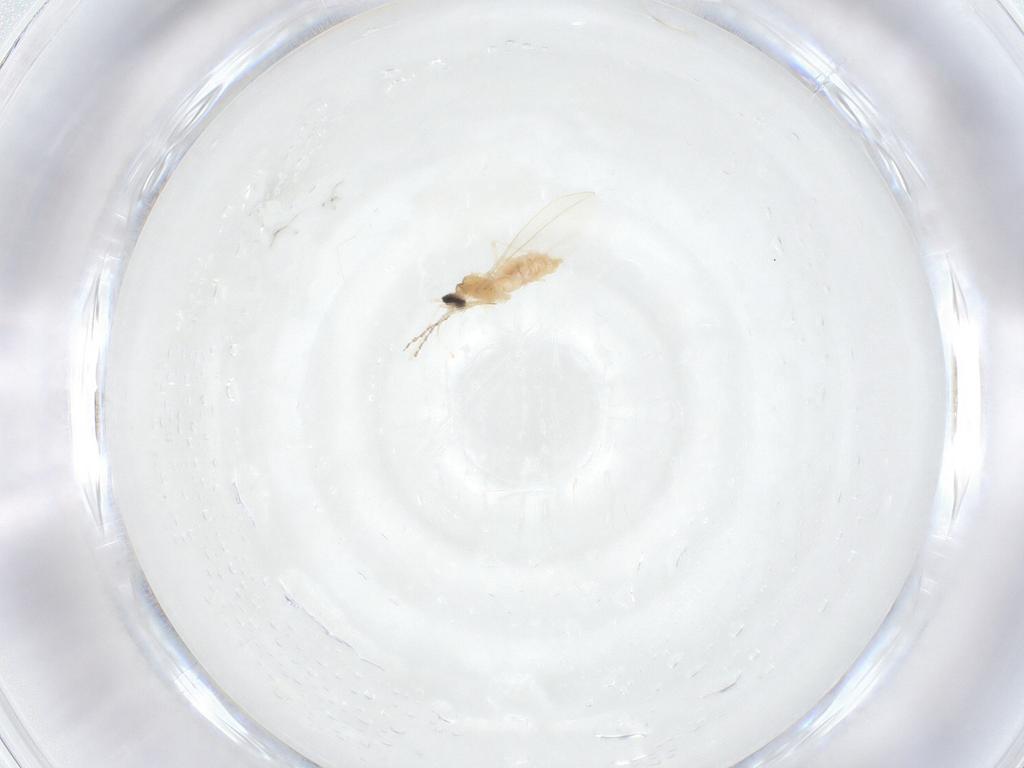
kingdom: Animalia
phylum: Arthropoda
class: Insecta
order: Diptera
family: Cecidomyiidae
